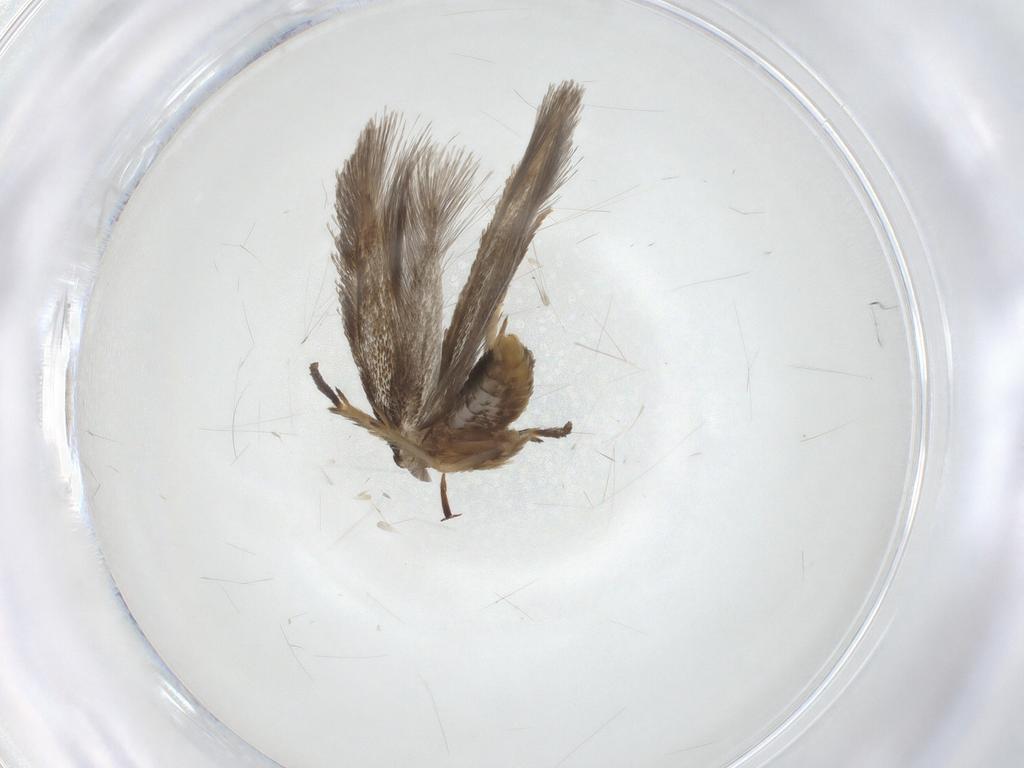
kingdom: Animalia
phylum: Arthropoda
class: Insecta
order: Lepidoptera
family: Nepticulidae
